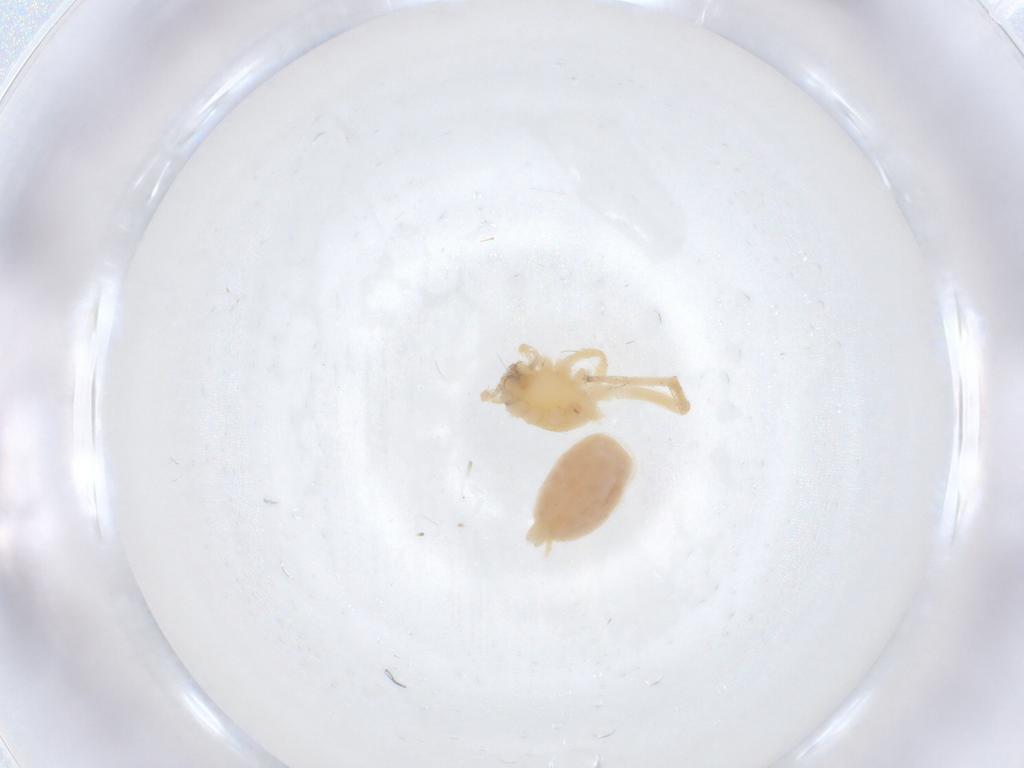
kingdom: Animalia
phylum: Arthropoda
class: Arachnida
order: Araneae
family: Anyphaenidae
